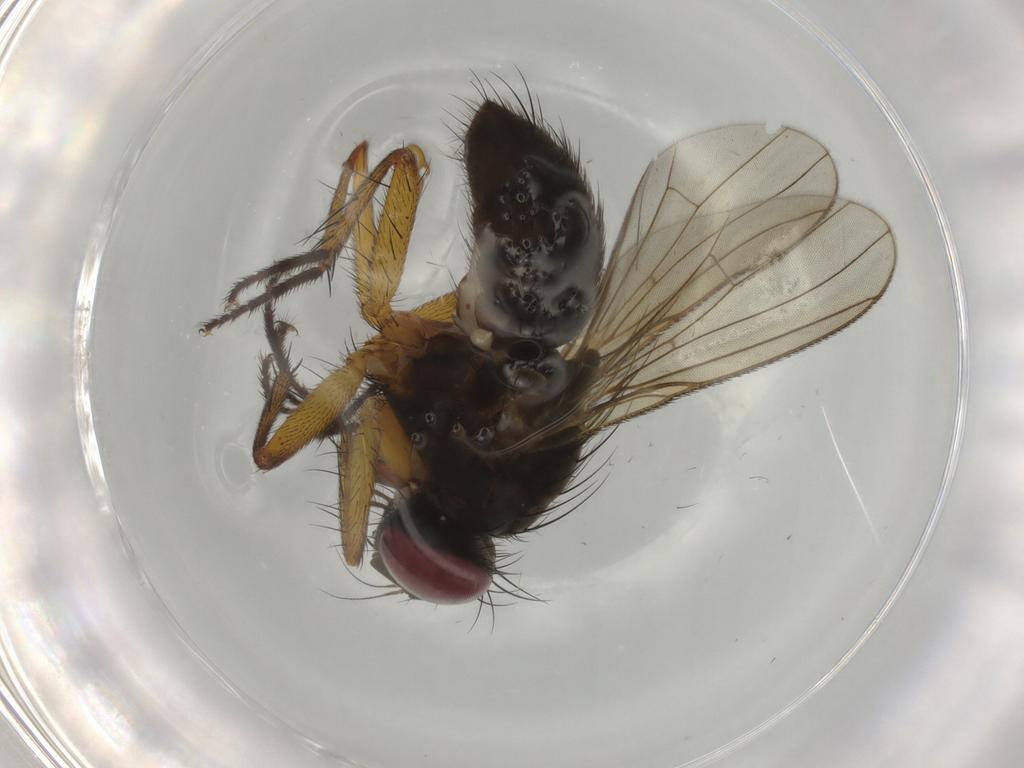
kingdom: Animalia
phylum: Arthropoda
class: Insecta
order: Diptera
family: Muscidae
